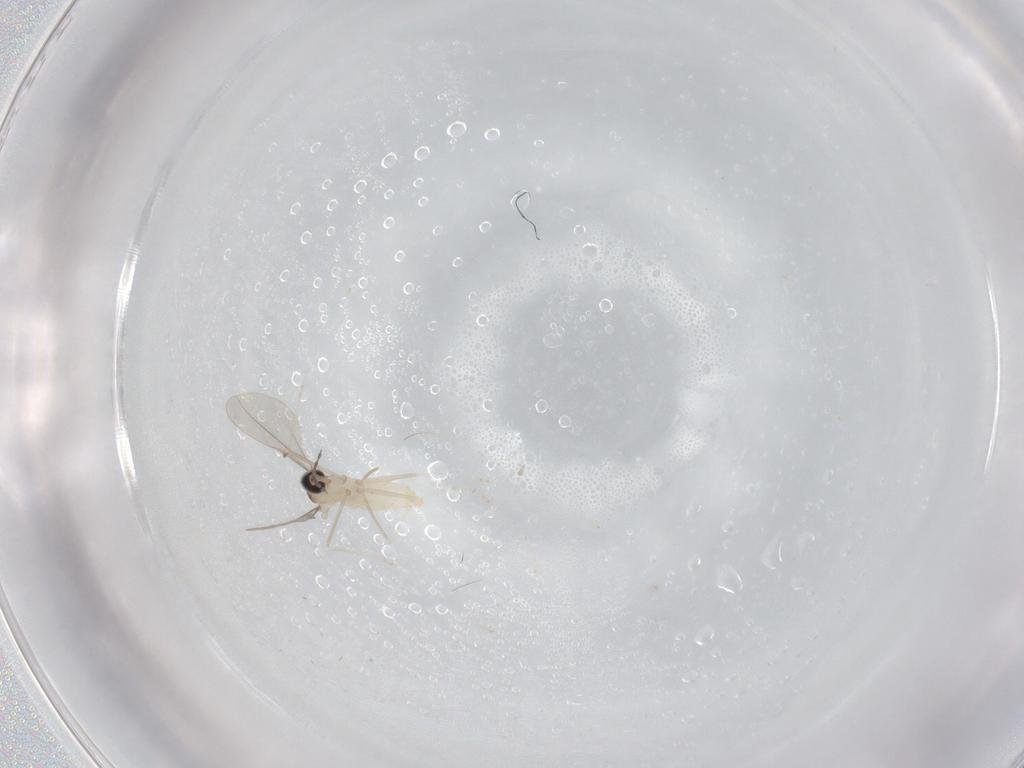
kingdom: Animalia
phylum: Arthropoda
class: Insecta
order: Diptera
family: Cecidomyiidae
